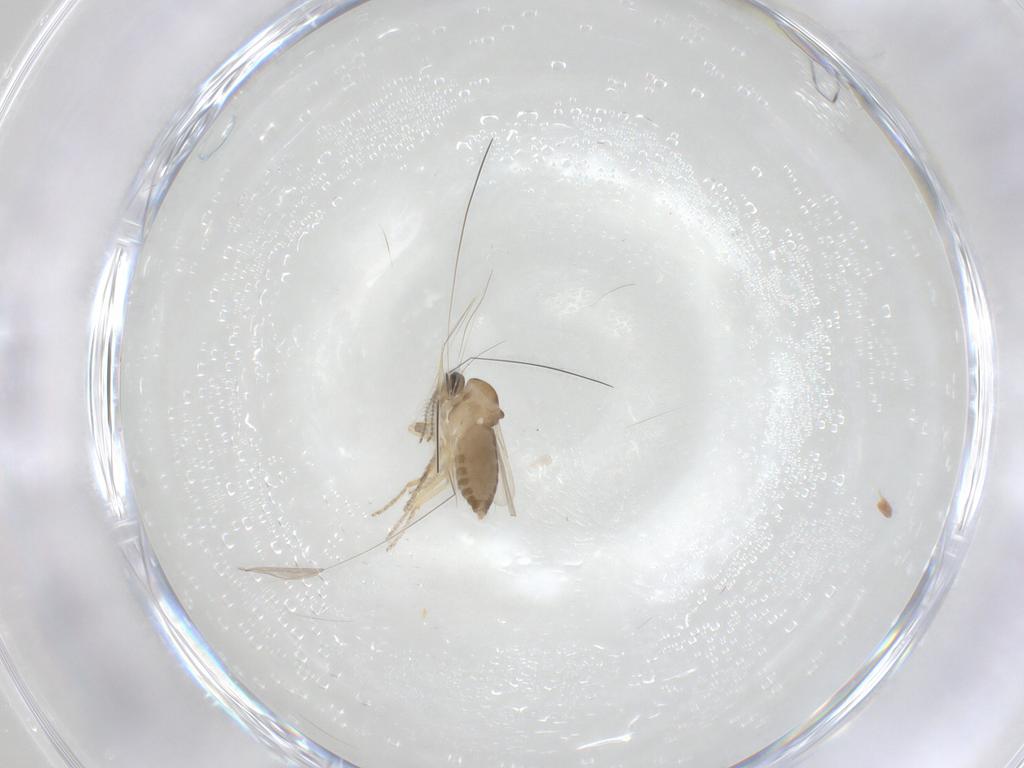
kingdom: Animalia
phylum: Arthropoda
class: Insecta
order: Diptera
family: Ceratopogonidae
